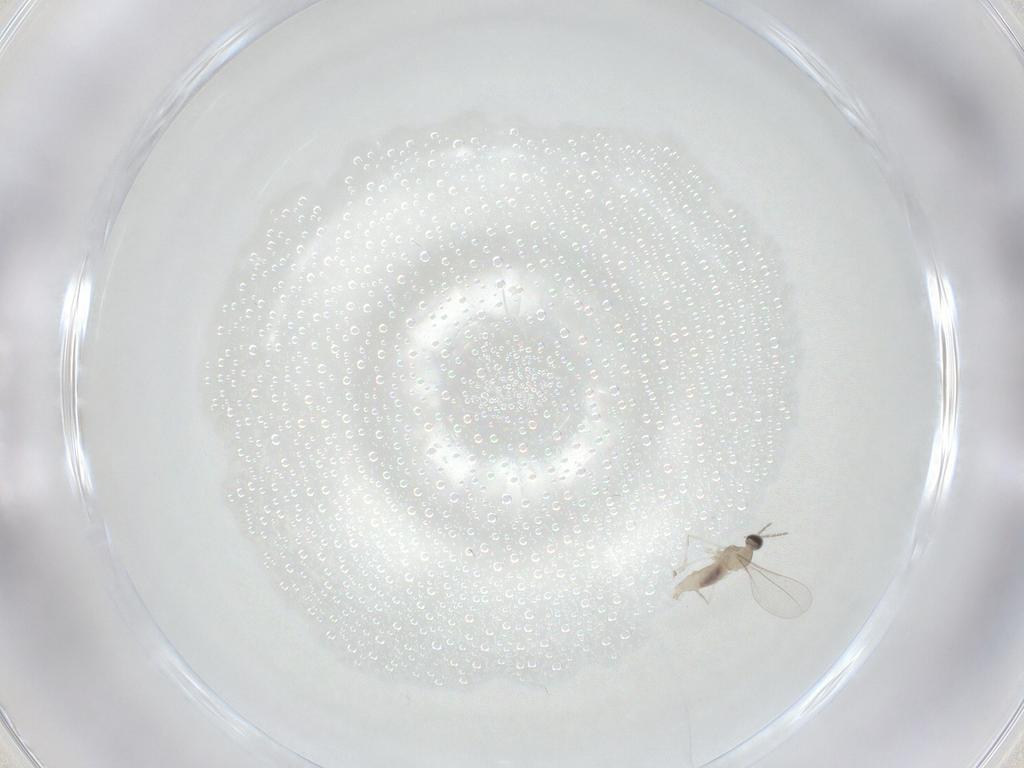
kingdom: Animalia
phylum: Arthropoda
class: Insecta
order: Diptera
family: Cecidomyiidae
